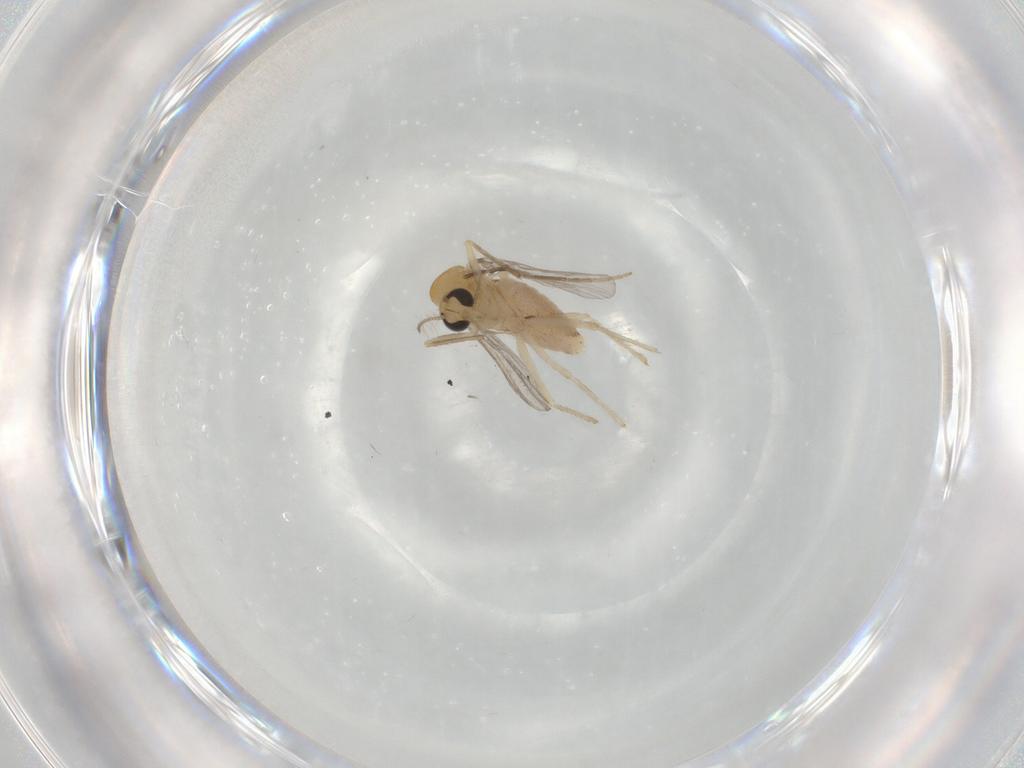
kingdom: Animalia
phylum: Arthropoda
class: Insecta
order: Diptera
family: Chironomidae
